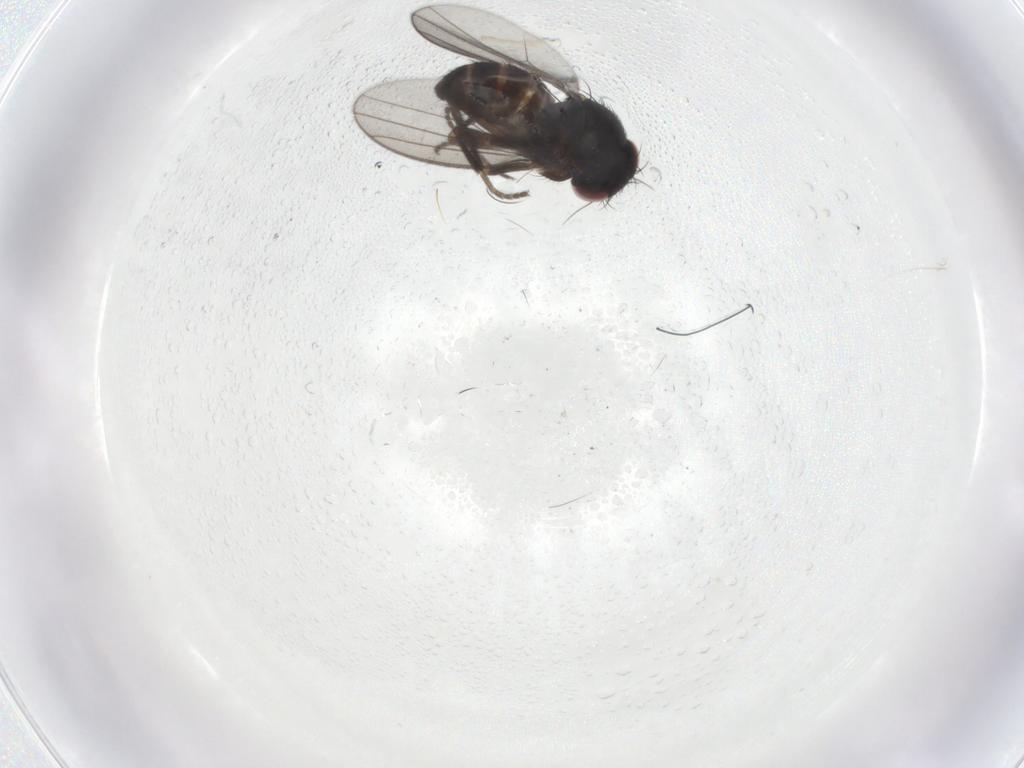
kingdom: Animalia
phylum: Arthropoda
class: Insecta
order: Diptera
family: Milichiidae
